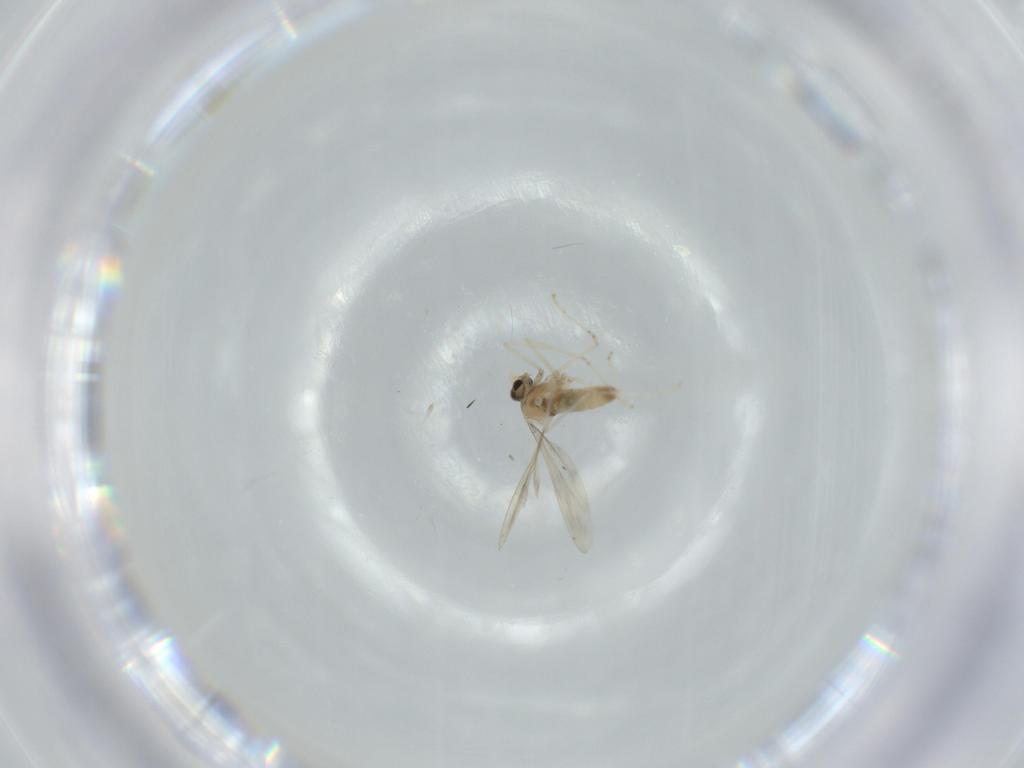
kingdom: Animalia
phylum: Arthropoda
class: Insecta
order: Diptera
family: Cecidomyiidae
